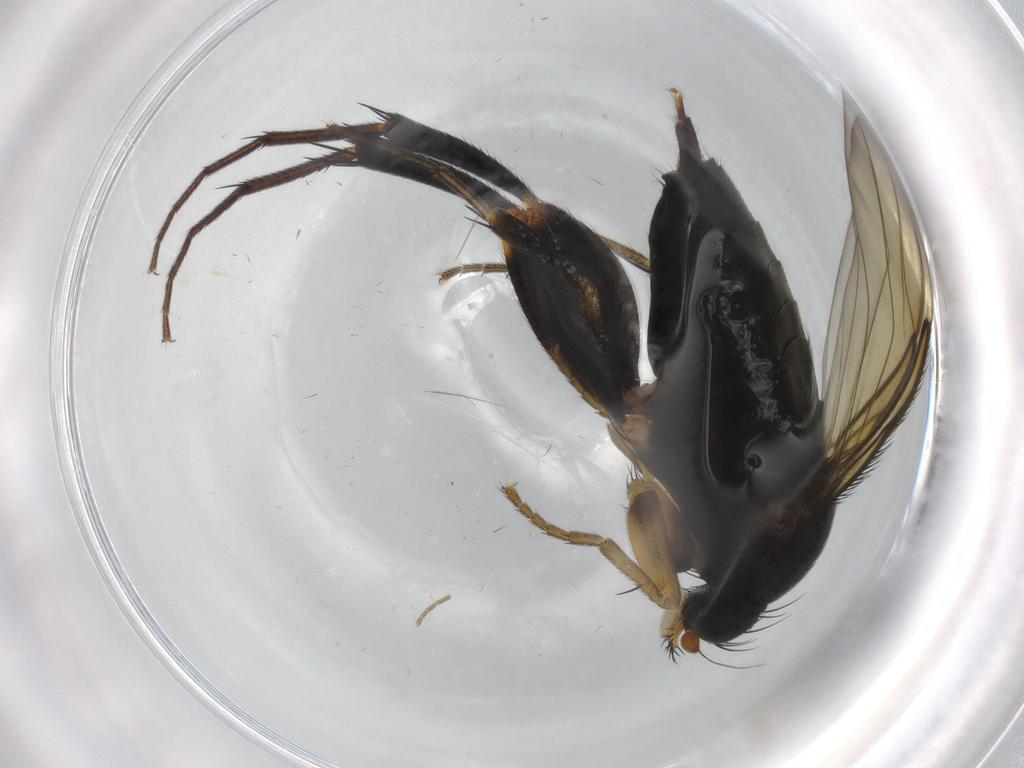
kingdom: Animalia
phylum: Arthropoda
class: Insecta
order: Diptera
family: Phoridae
